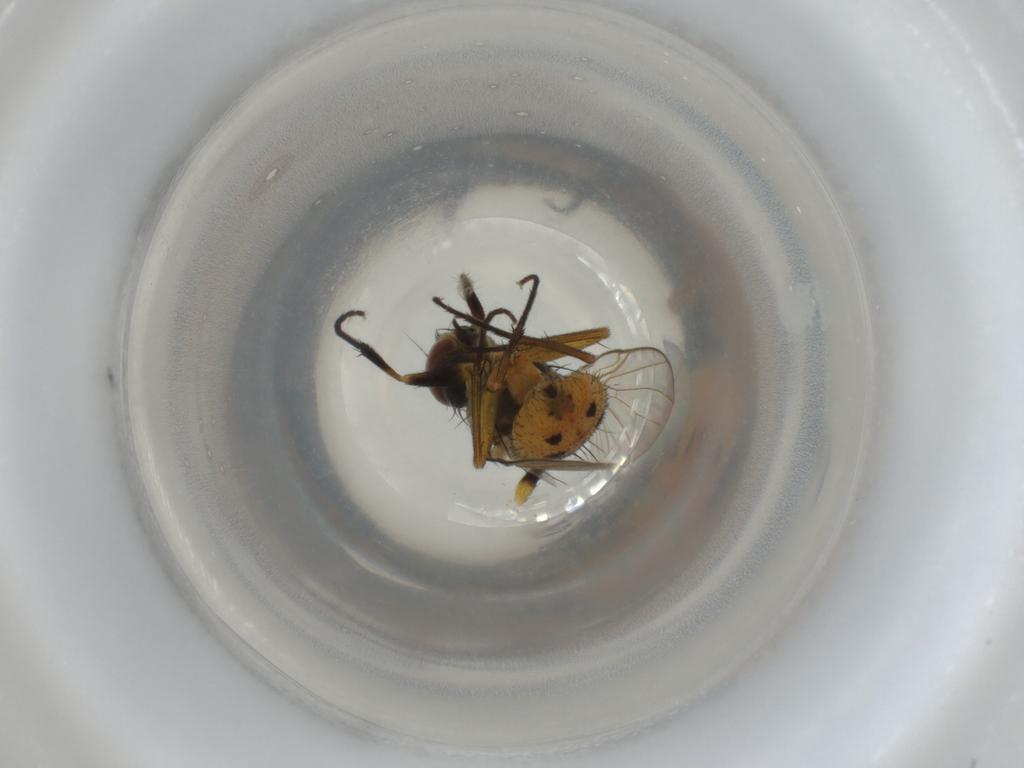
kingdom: Animalia
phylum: Arthropoda
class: Insecta
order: Diptera
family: Muscidae
